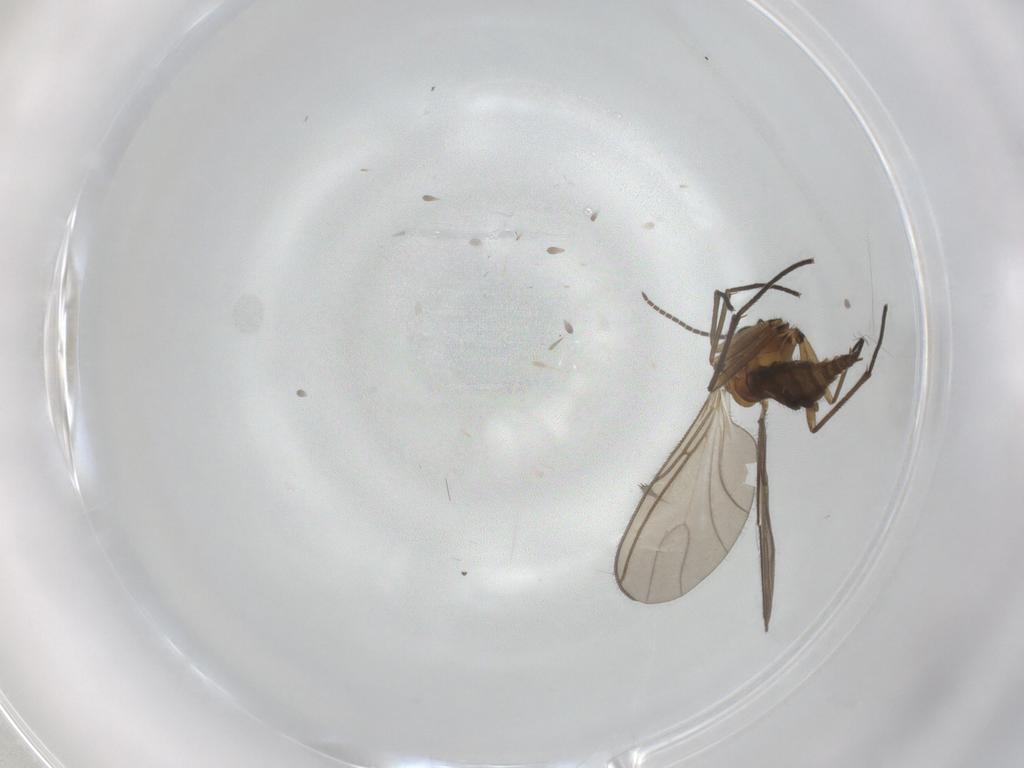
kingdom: Animalia
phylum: Arthropoda
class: Insecta
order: Diptera
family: Sciaridae
